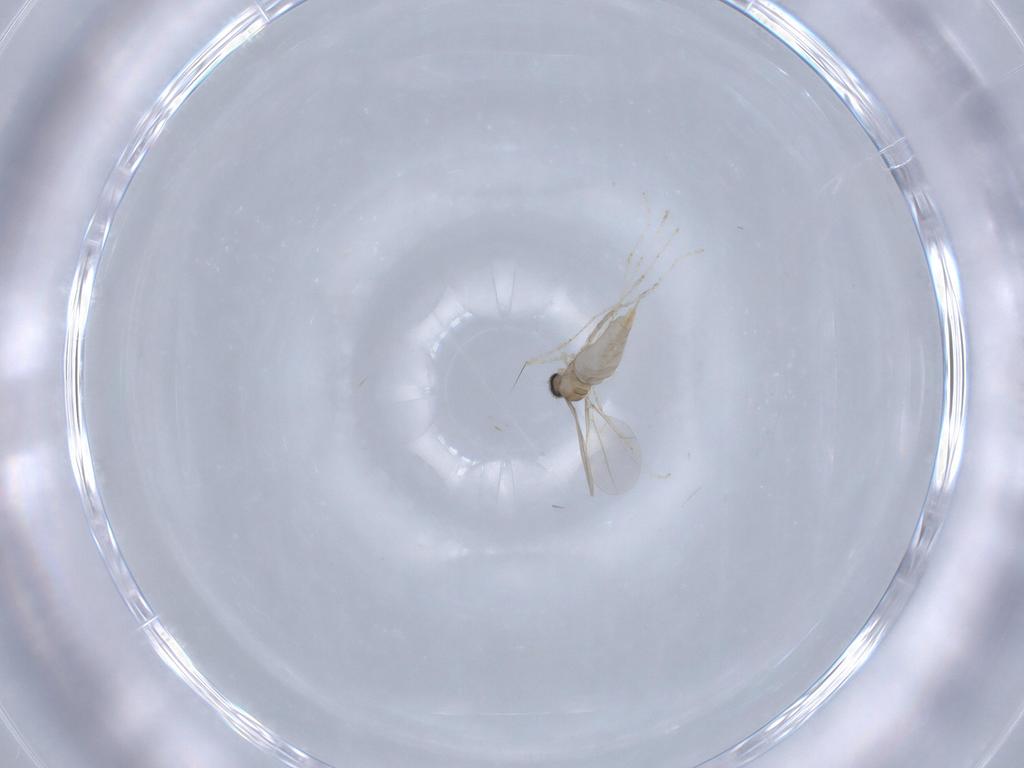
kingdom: Animalia
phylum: Arthropoda
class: Insecta
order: Diptera
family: Cecidomyiidae
